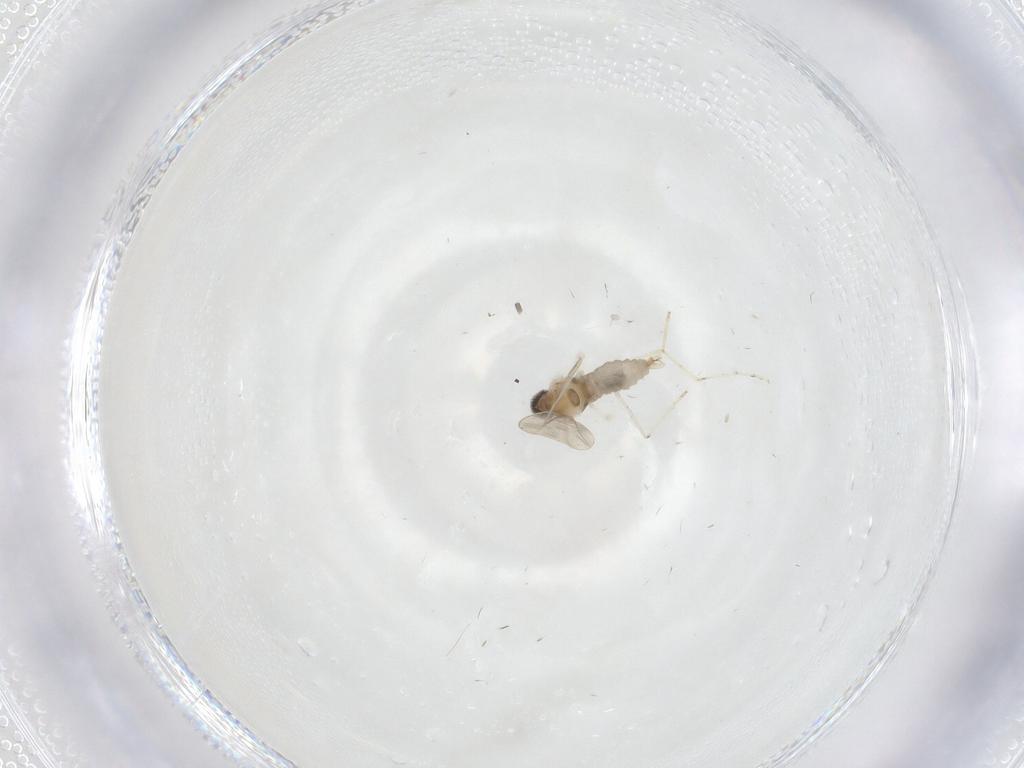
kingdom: Animalia
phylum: Arthropoda
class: Insecta
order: Diptera
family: Cecidomyiidae
